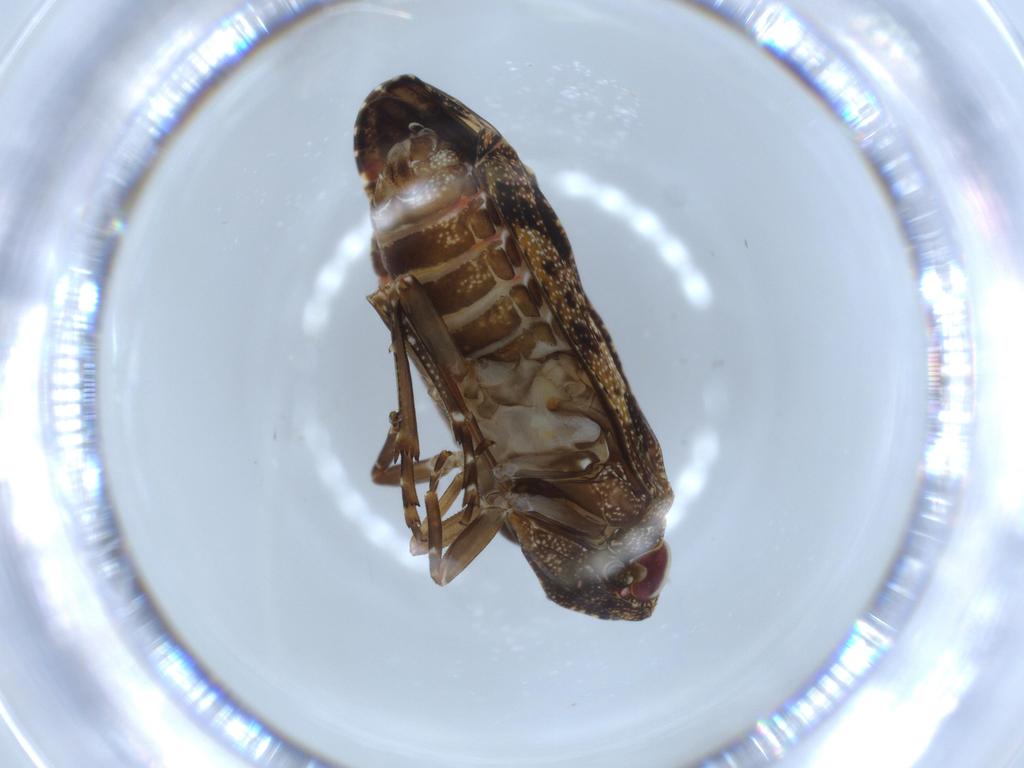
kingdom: Animalia
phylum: Arthropoda
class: Insecta
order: Hemiptera
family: Achilidae
